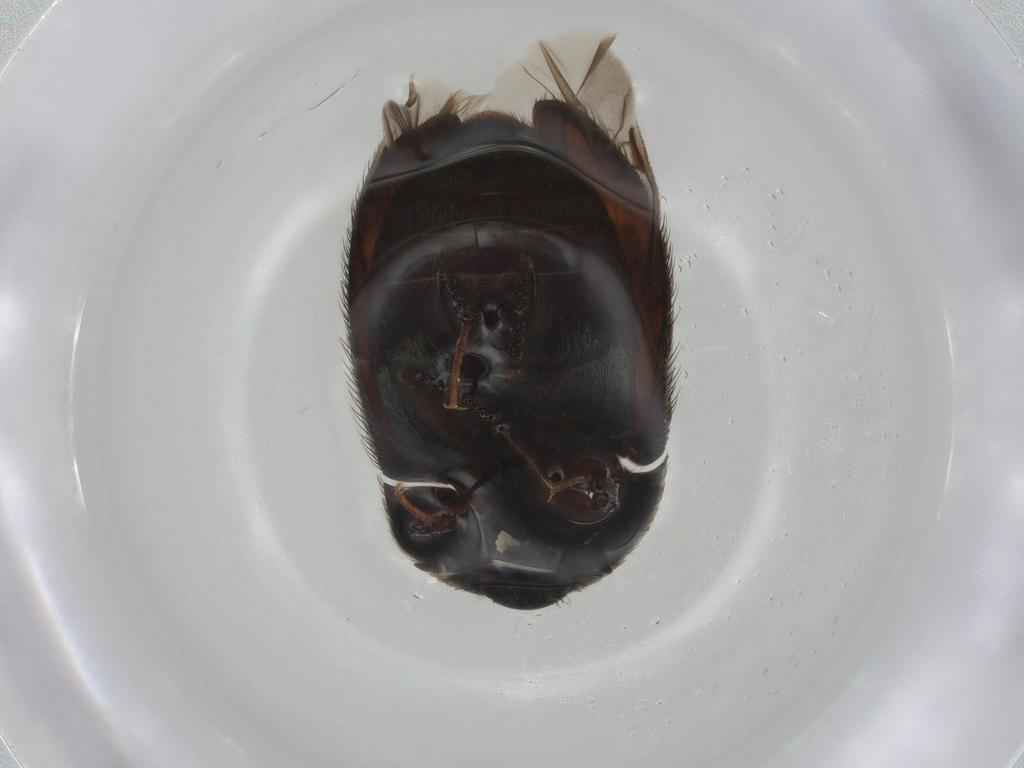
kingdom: Animalia
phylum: Arthropoda
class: Insecta
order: Coleoptera
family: Dermestidae
